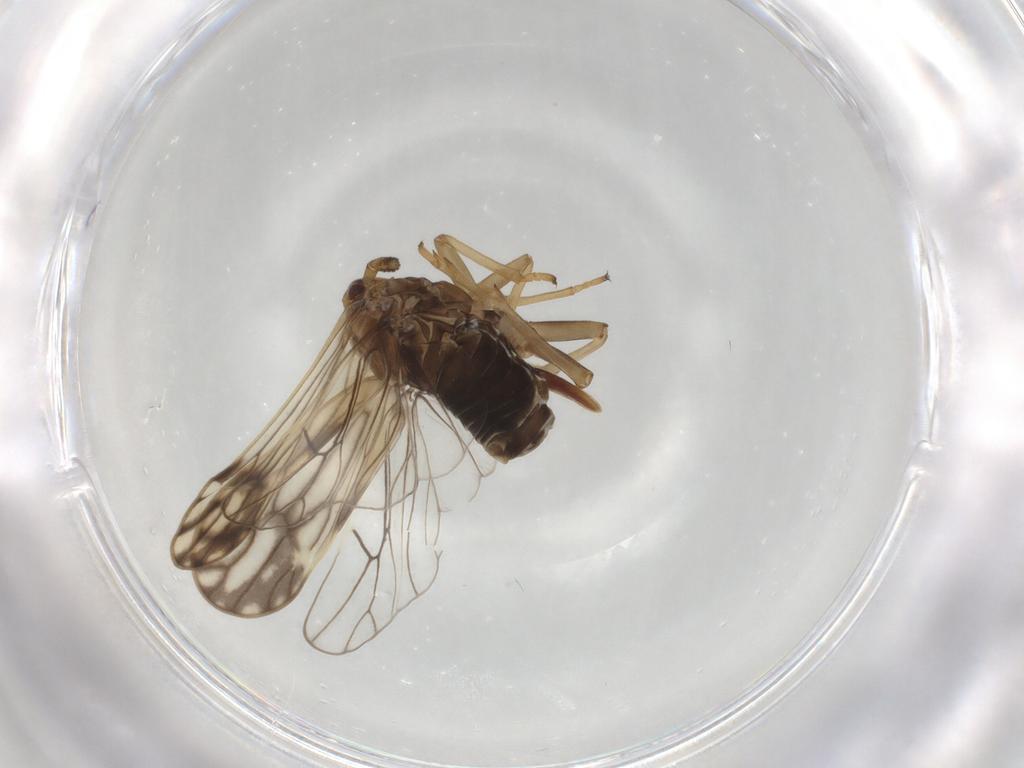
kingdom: Animalia
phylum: Arthropoda
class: Insecta
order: Hemiptera
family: Delphacidae
